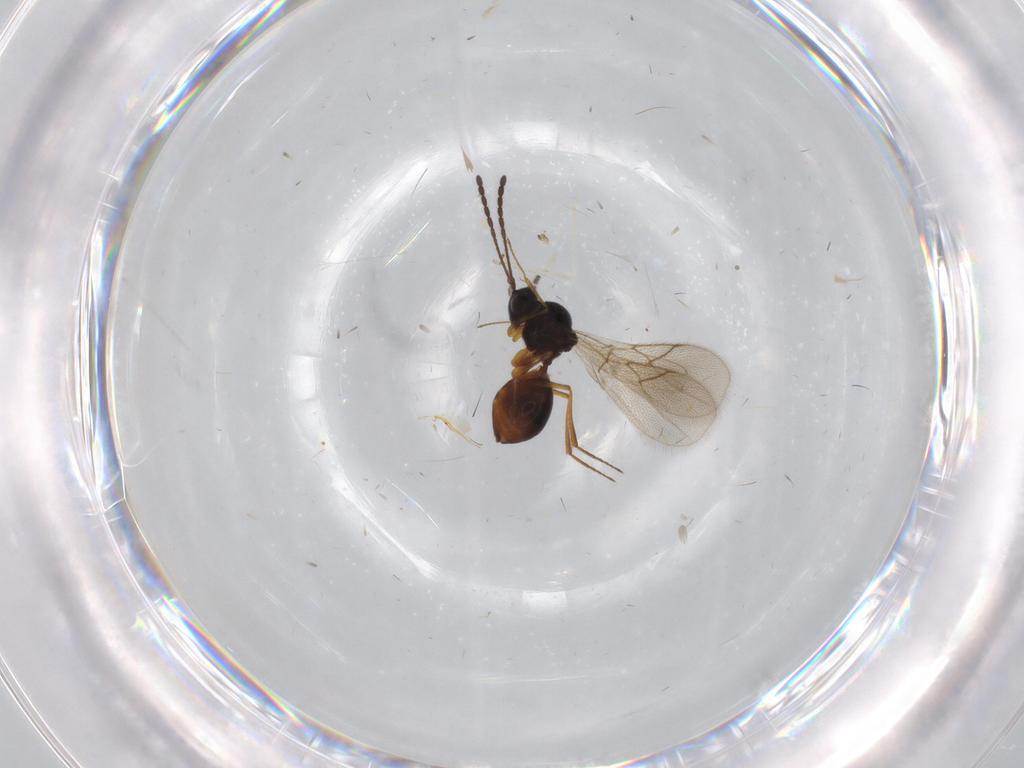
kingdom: Animalia
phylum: Arthropoda
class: Insecta
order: Hymenoptera
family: Figitidae
